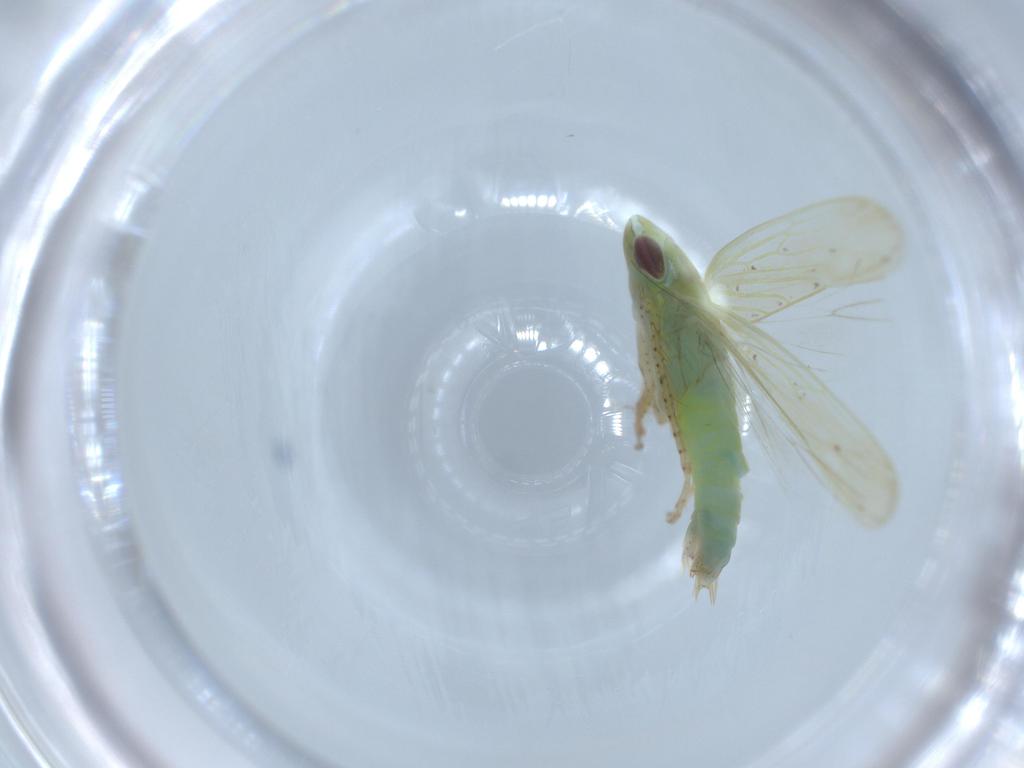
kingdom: Animalia
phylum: Arthropoda
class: Insecta
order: Hemiptera
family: Cicadellidae
